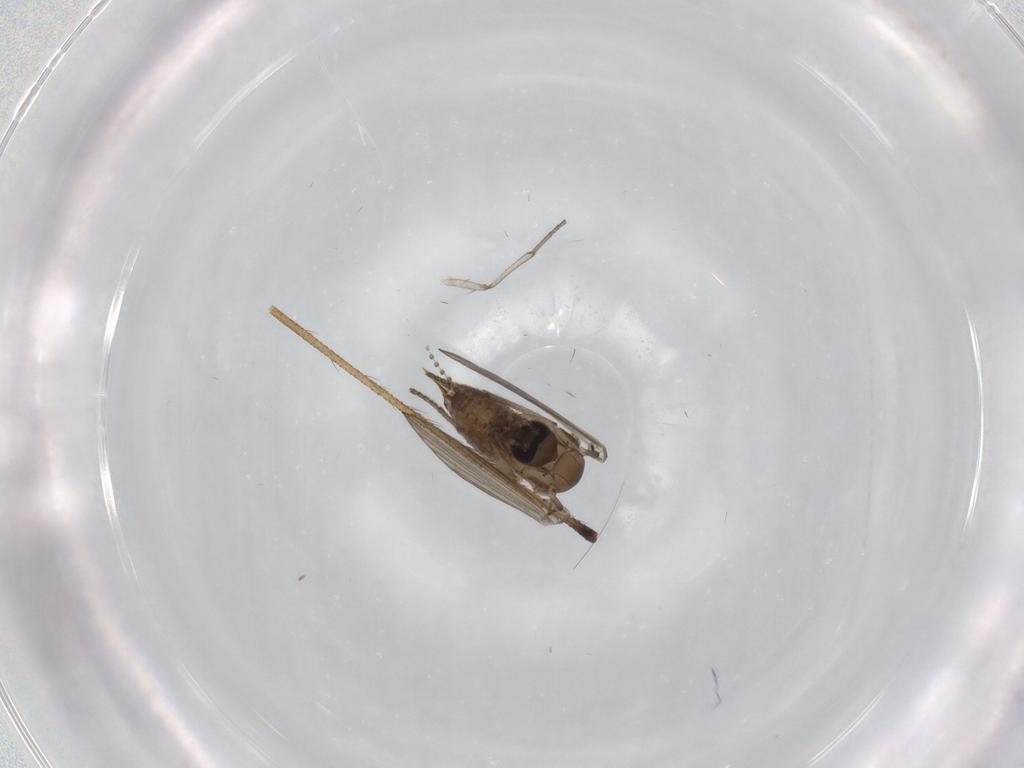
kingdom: Animalia
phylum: Arthropoda
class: Insecta
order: Diptera
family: Limoniidae
